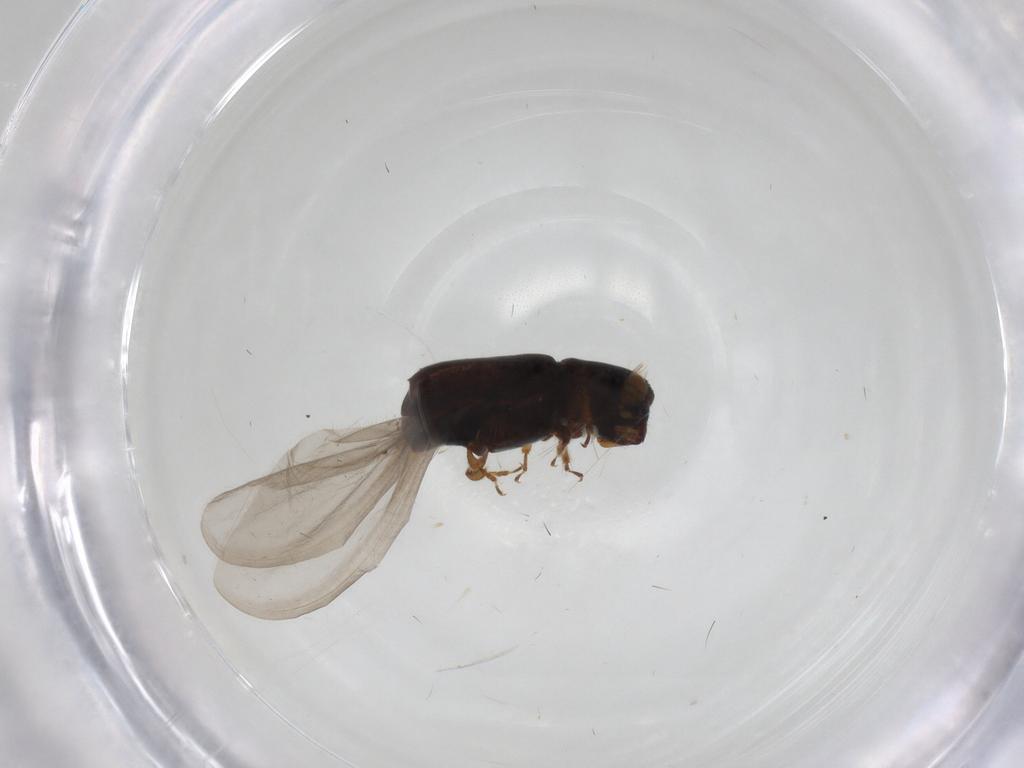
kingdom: Animalia
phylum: Arthropoda
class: Insecta
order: Coleoptera
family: Curculionidae
